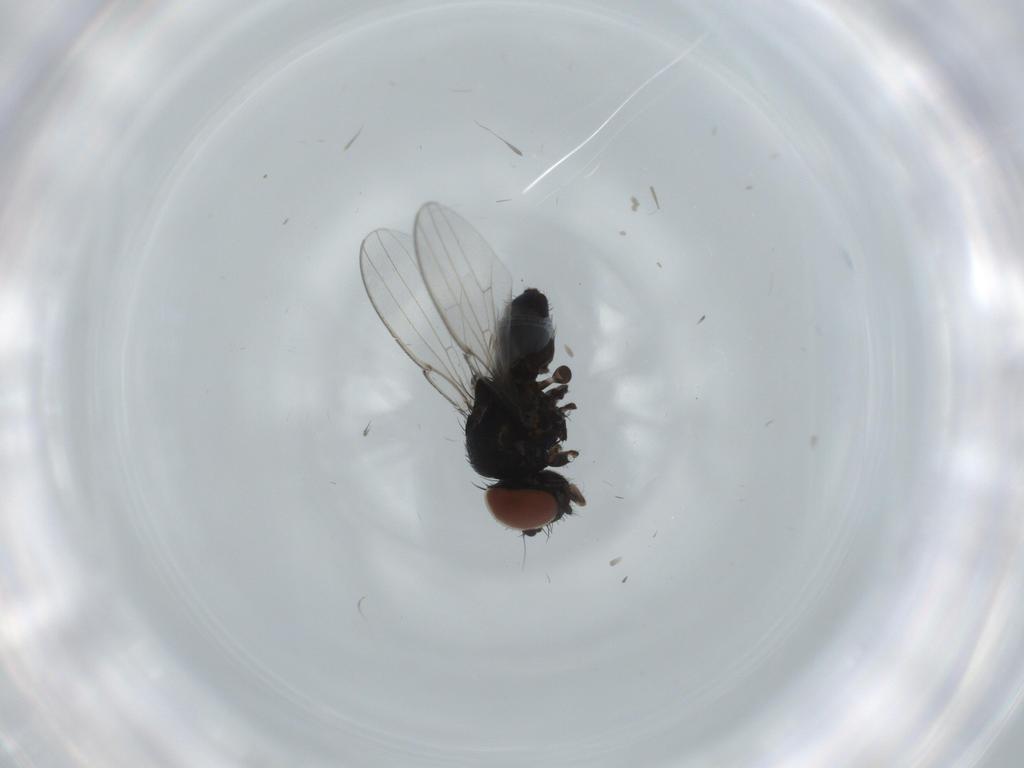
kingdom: Animalia
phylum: Arthropoda
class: Insecta
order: Diptera
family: Milichiidae
